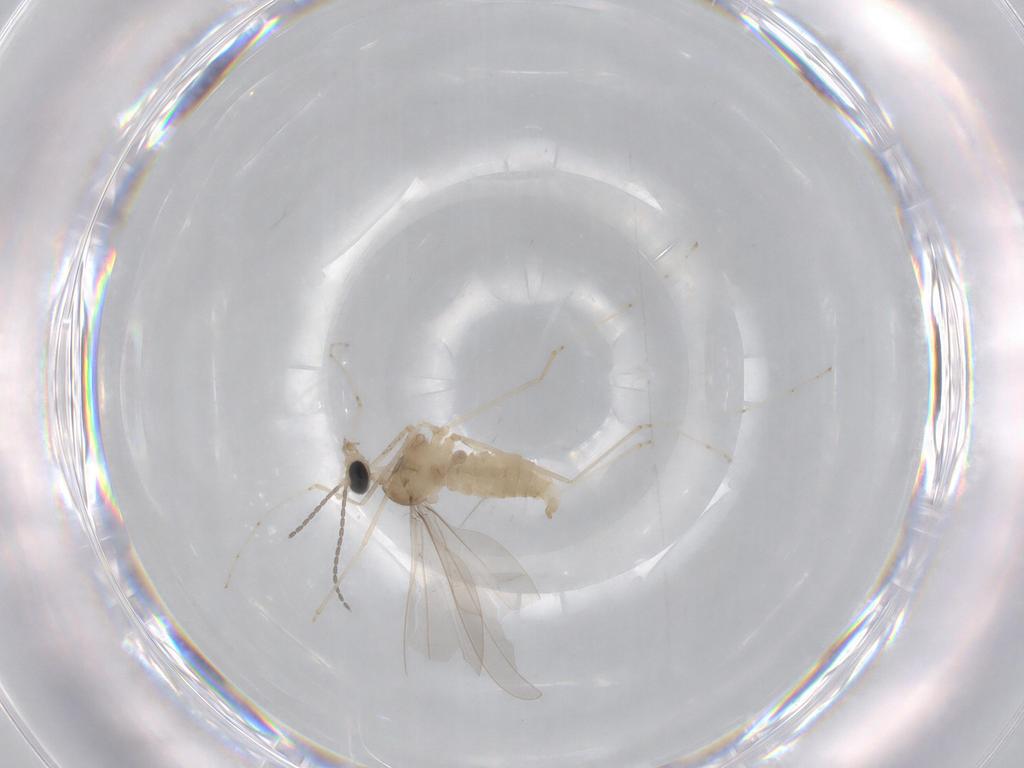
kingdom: Animalia
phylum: Arthropoda
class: Insecta
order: Diptera
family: Cecidomyiidae
